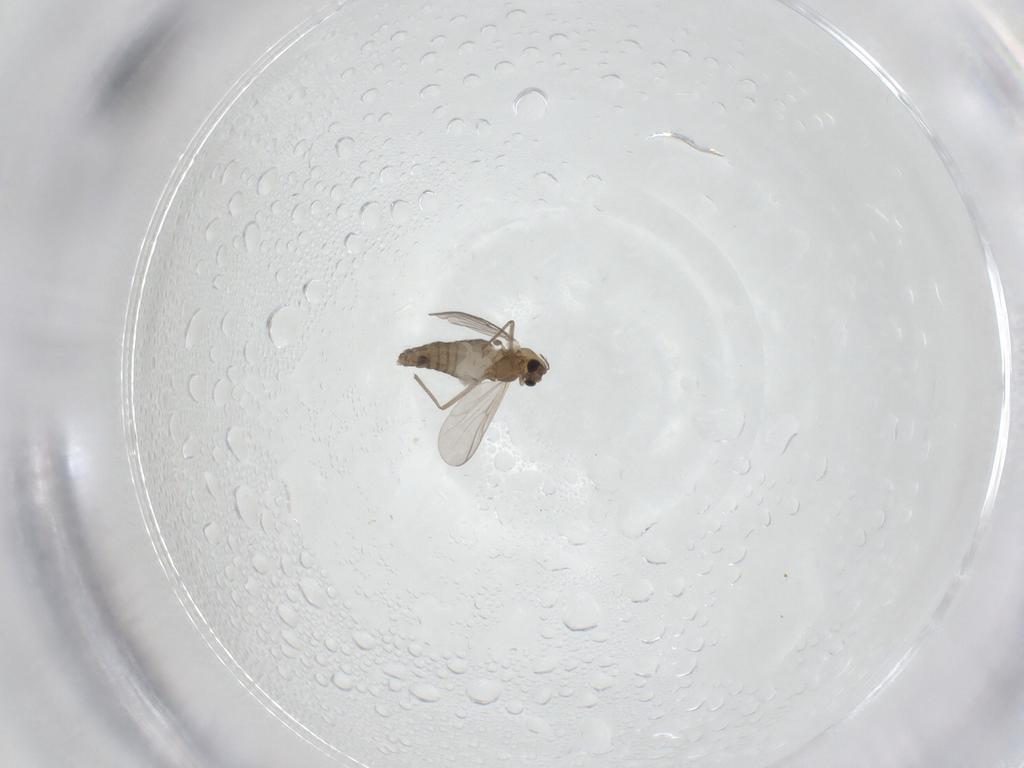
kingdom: Animalia
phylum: Arthropoda
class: Insecta
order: Diptera
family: Chironomidae
